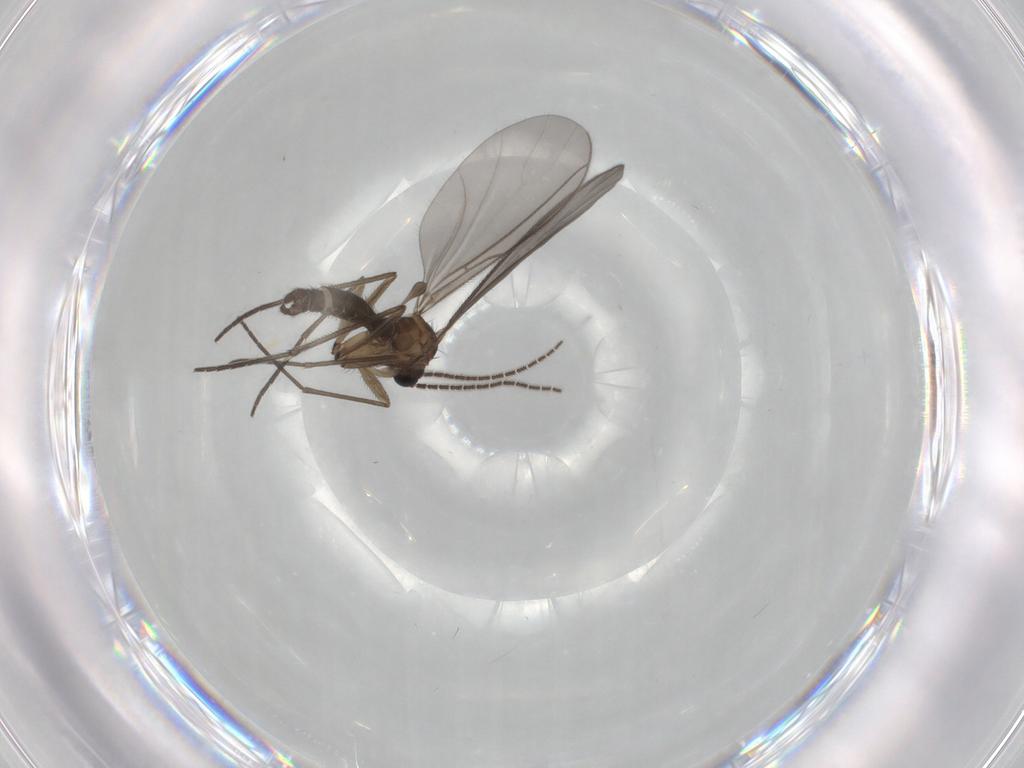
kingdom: Animalia
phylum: Arthropoda
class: Insecta
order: Diptera
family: Sciaridae
